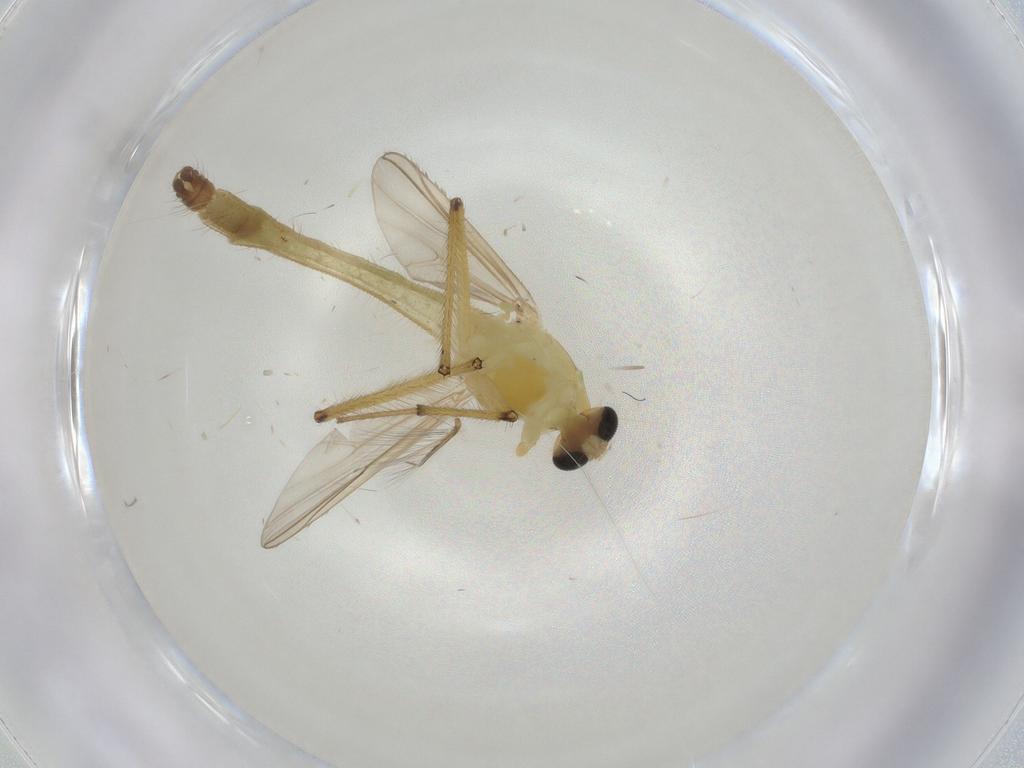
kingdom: Animalia
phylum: Arthropoda
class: Insecta
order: Diptera
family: Chironomidae
